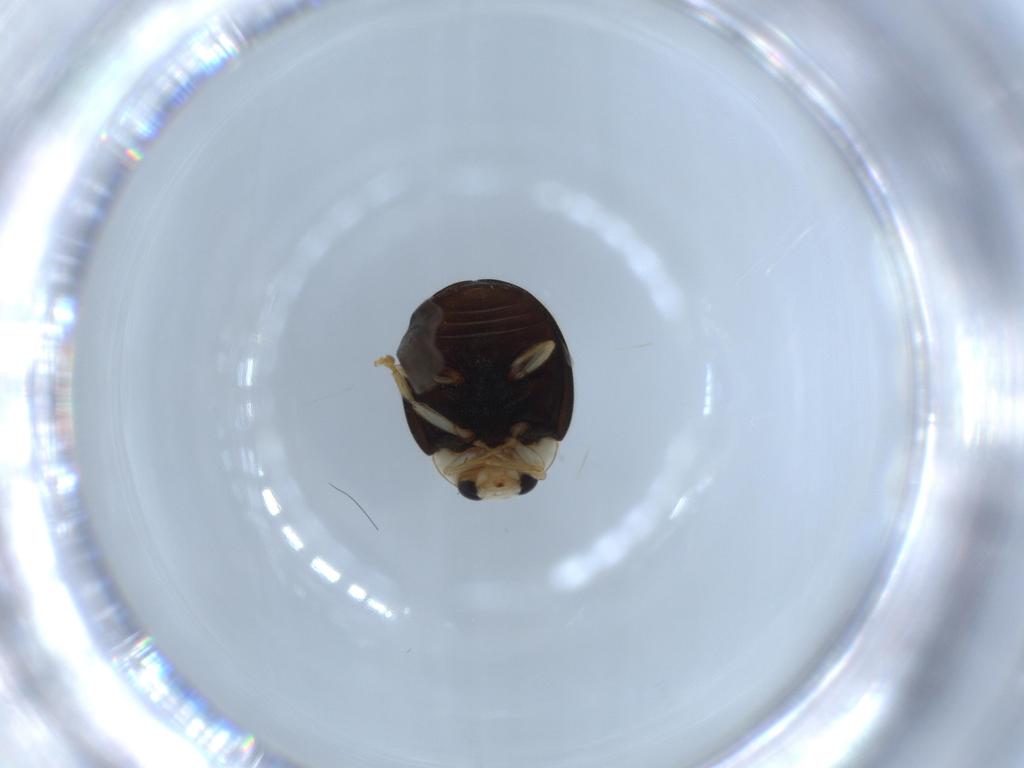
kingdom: Animalia
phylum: Arthropoda
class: Insecta
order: Coleoptera
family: Coccinellidae
